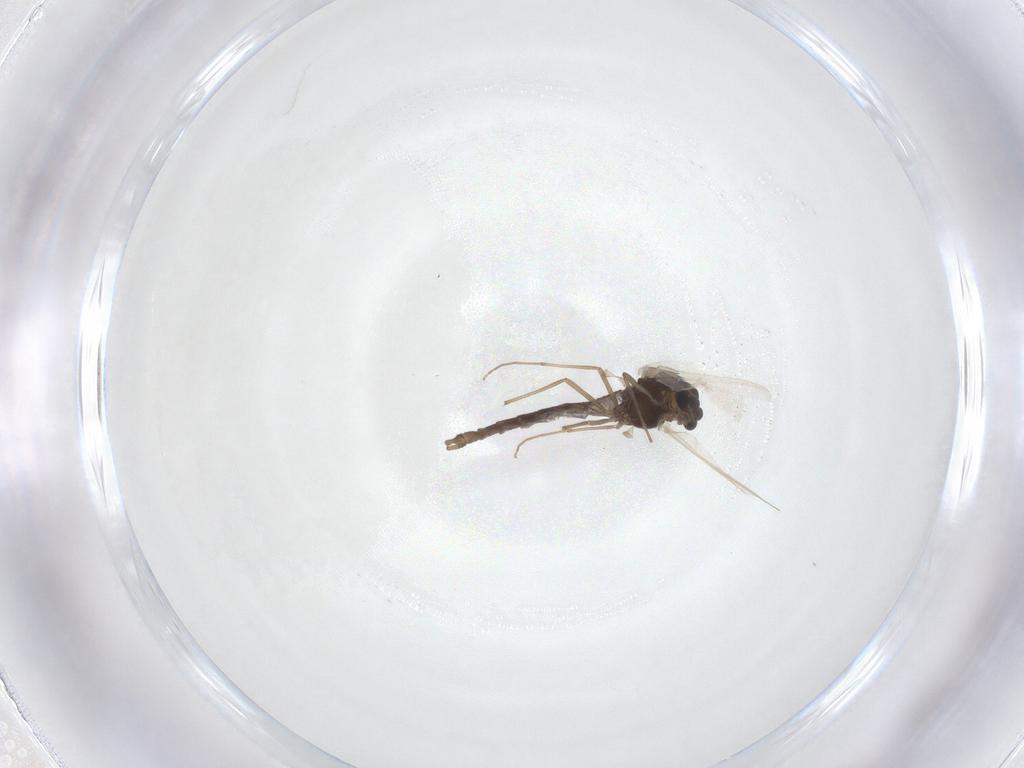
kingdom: Animalia
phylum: Arthropoda
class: Insecta
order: Diptera
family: Chironomidae
